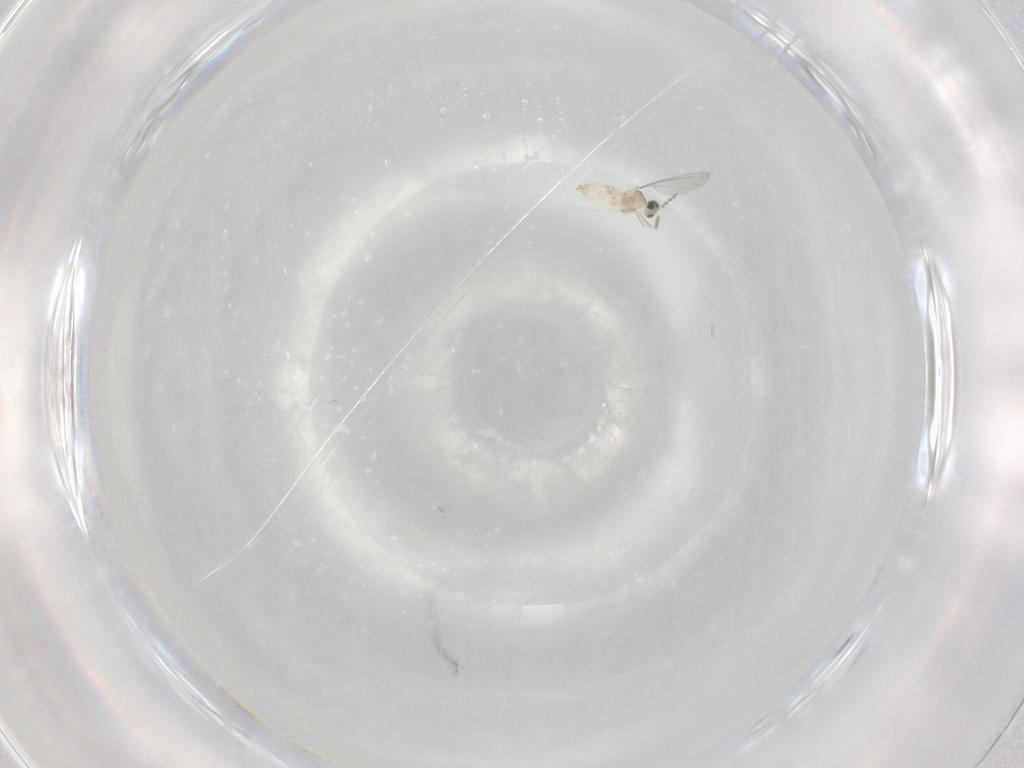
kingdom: Animalia
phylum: Arthropoda
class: Insecta
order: Diptera
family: Cecidomyiidae
